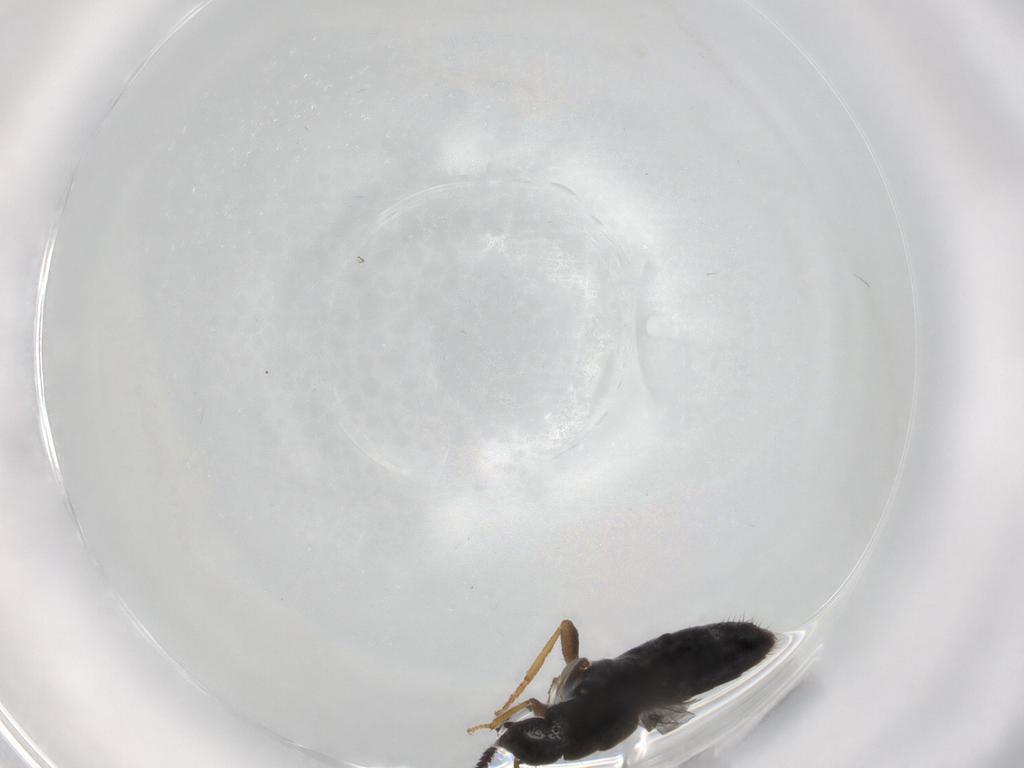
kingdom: Animalia
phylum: Arthropoda
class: Insecta
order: Coleoptera
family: Staphylinidae
